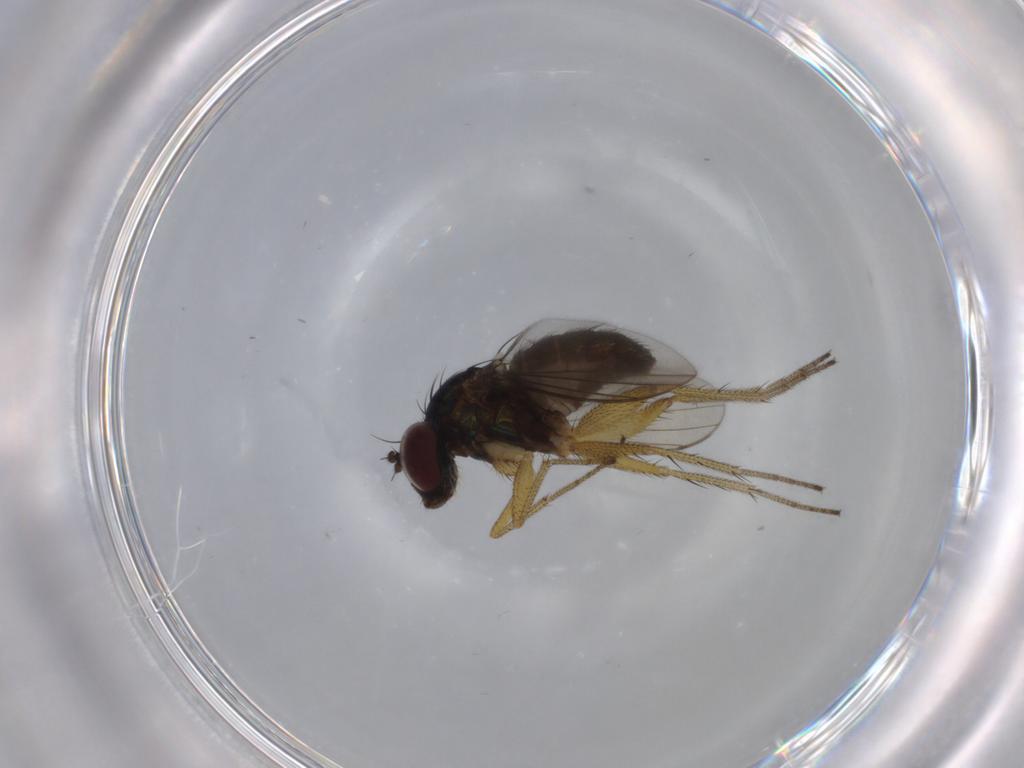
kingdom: Animalia
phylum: Arthropoda
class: Insecta
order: Diptera
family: Dolichopodidae
